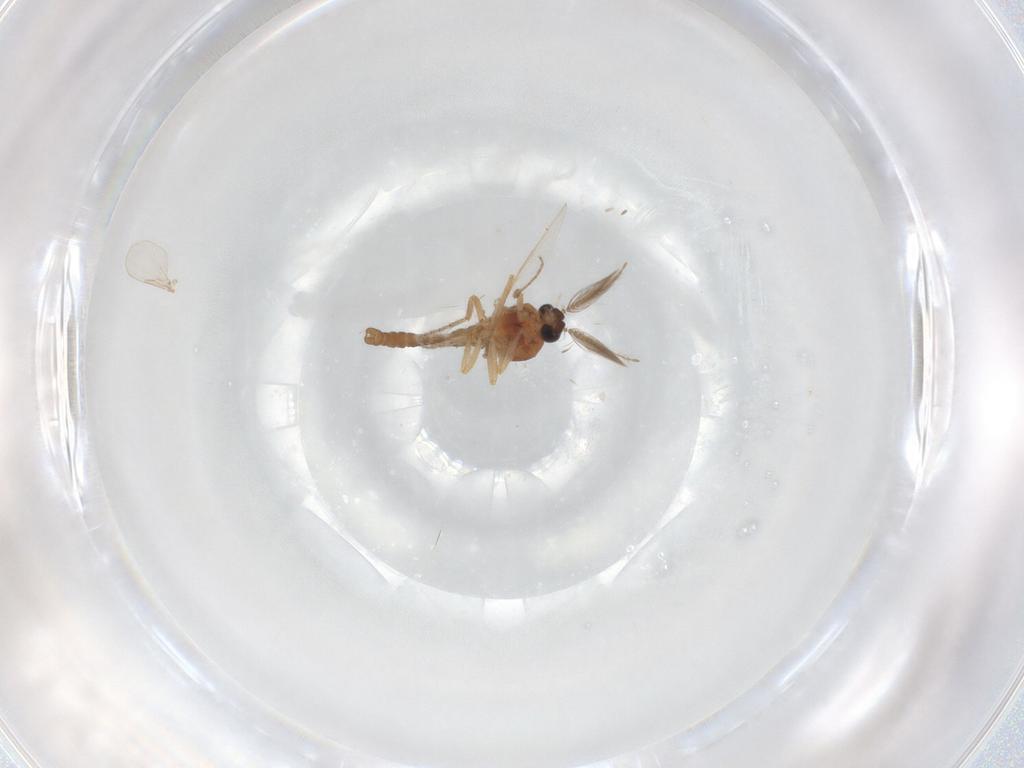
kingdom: Animalia
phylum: Arthropoda
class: Insecta
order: Diptera
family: Ceratopogonidae
